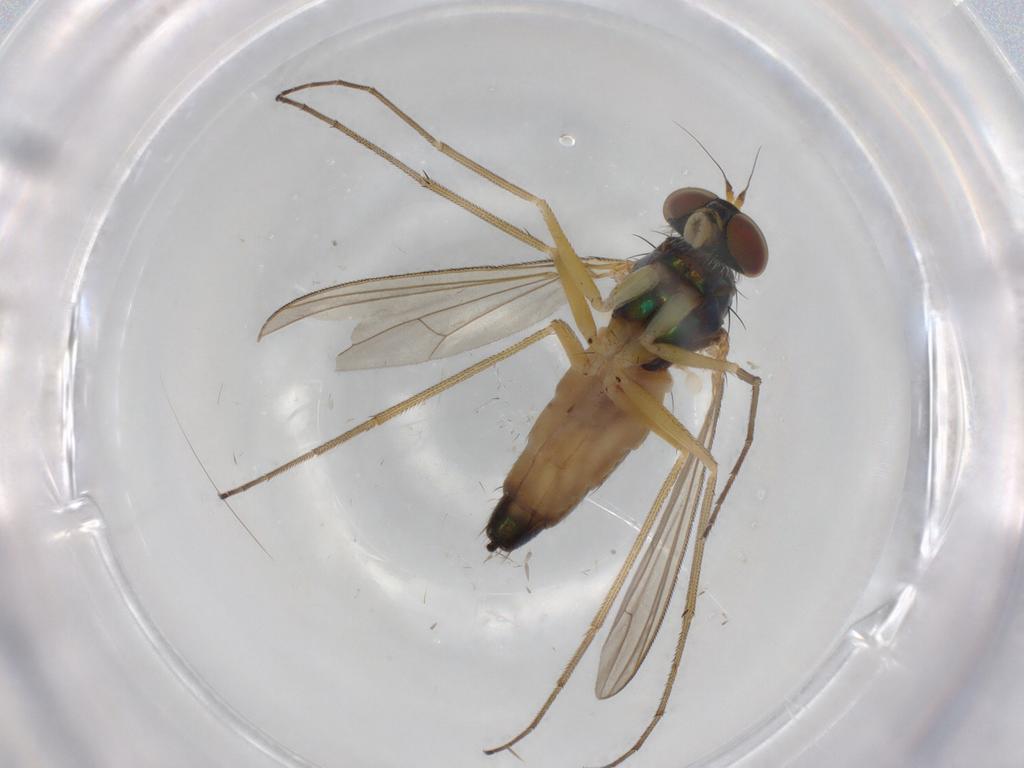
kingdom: Animalia
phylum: Arthropoda
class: Insecta
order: Diptera
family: Dolichopodidae
